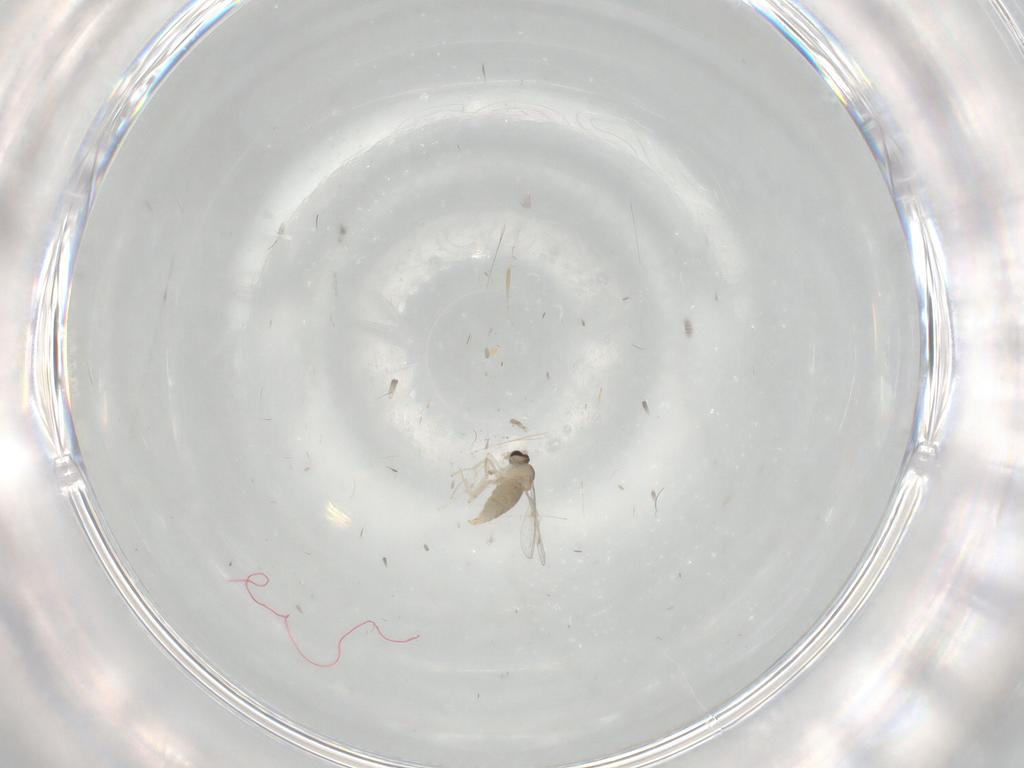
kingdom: Animalia
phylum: Arthropoda
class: Insecta
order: Diptera
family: Cecidomyiidae
